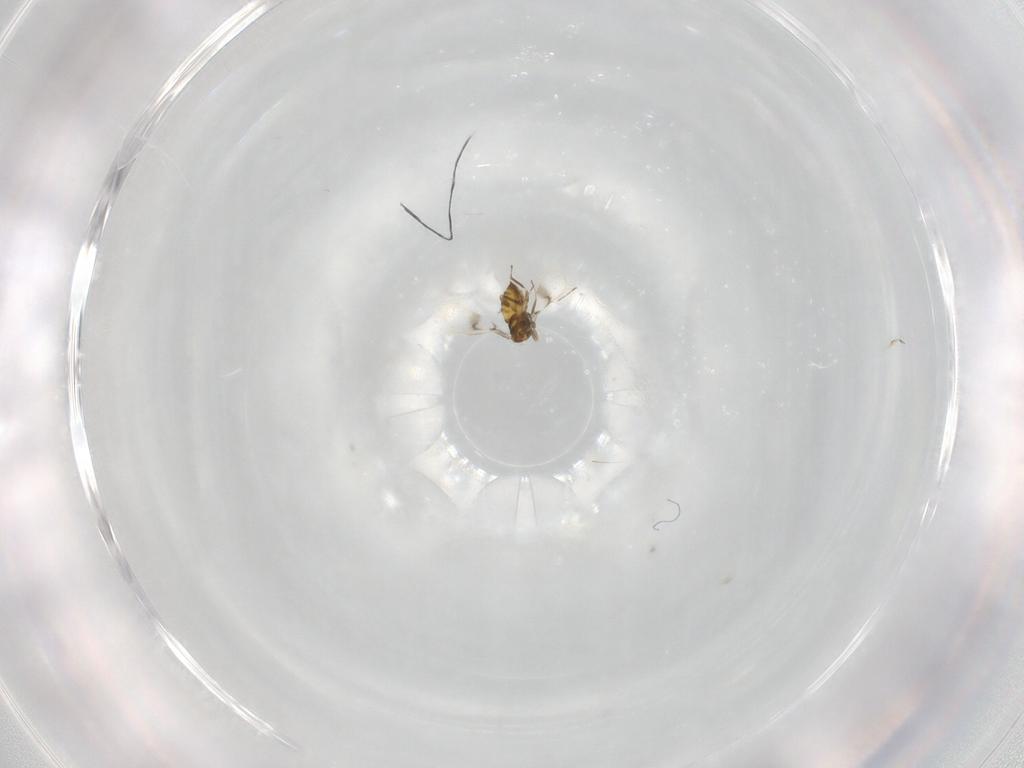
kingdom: Animalia
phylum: Arthropoda
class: Insecta
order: Hymenoptera
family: Trichogrammatidae
